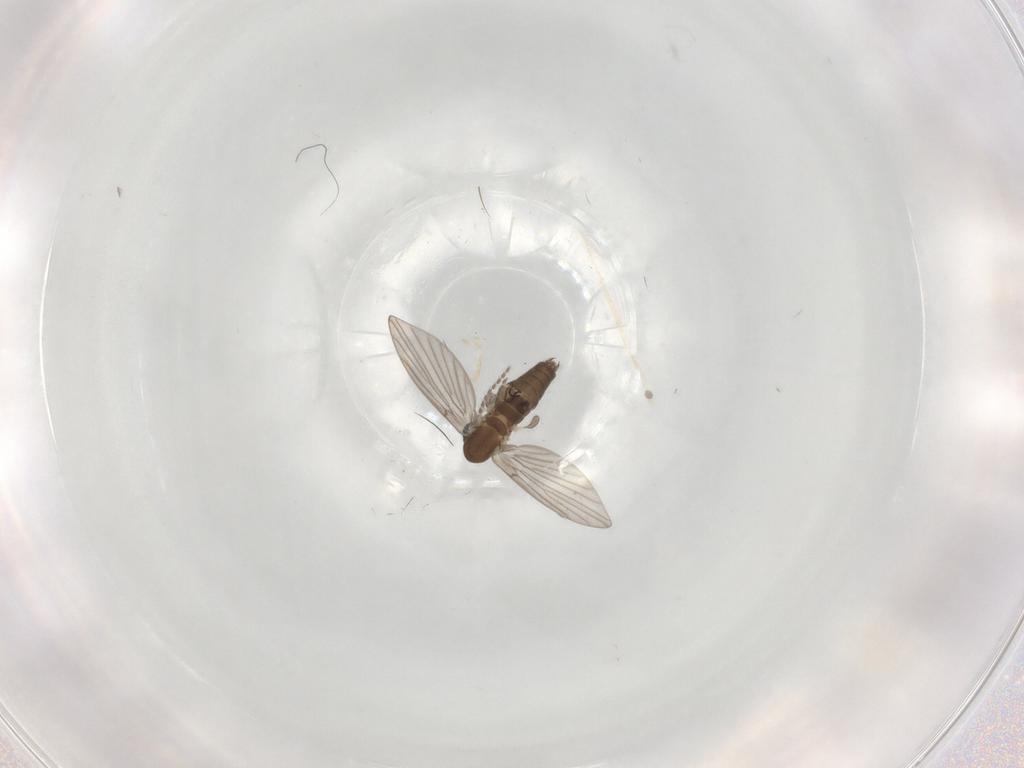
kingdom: Animalia
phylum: Arthropoda
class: Insecta
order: Diptera
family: Psychodidae
